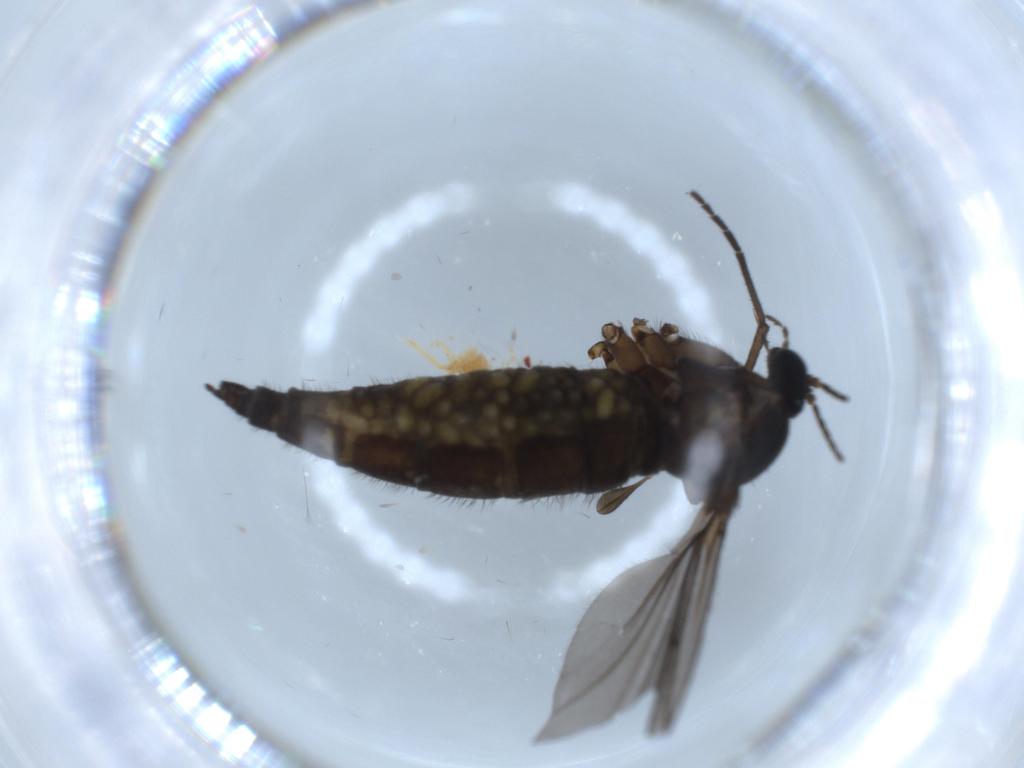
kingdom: Animalia
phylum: Arthropoda
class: Insecta
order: Diptera
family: Sciaridae
